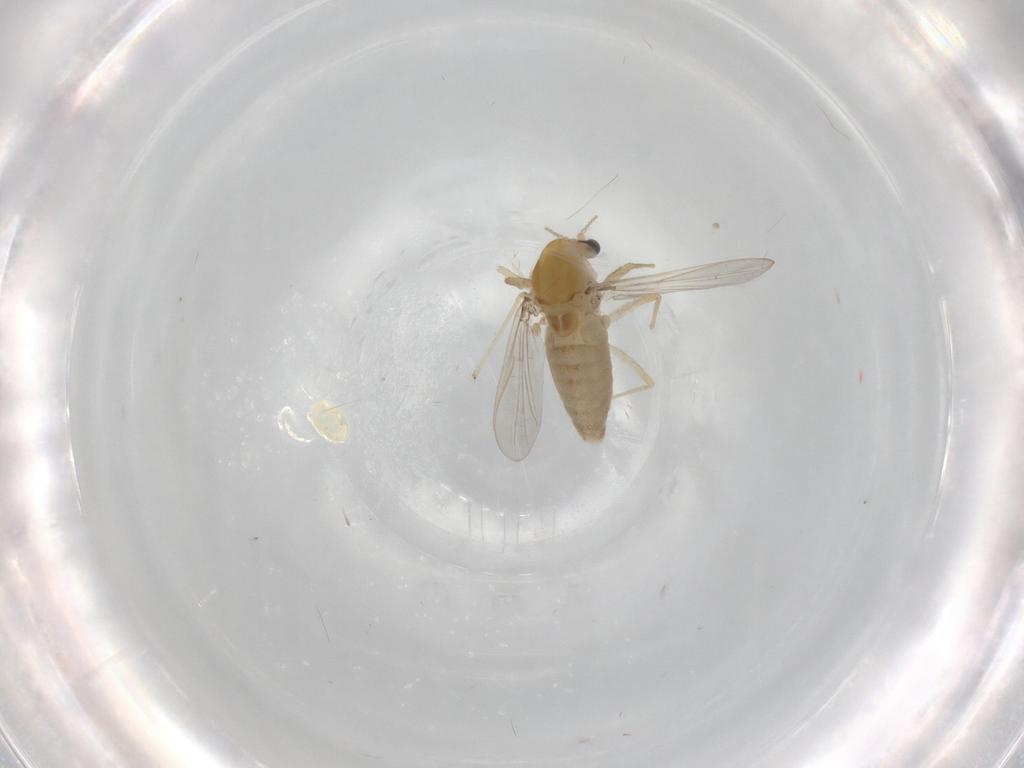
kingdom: Animalia
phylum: Arthropoda
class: Insecta
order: Diptera
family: Chironomidae
